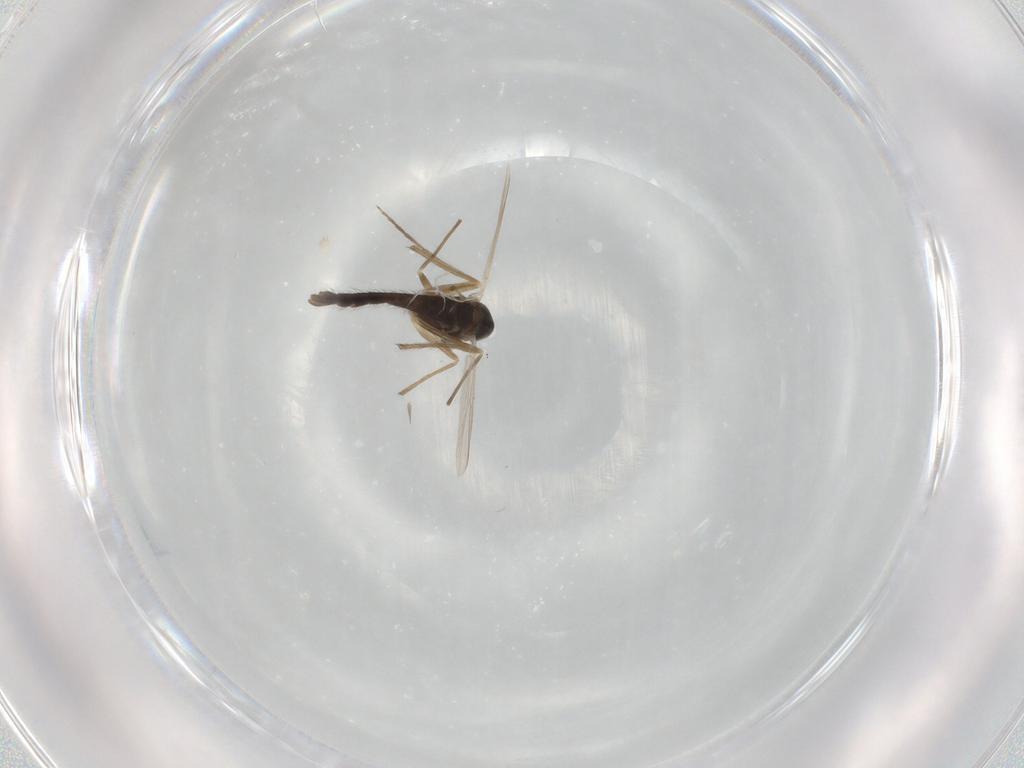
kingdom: Animalia
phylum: Arthropoda
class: Insecta
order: Diptera
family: Chironomidae
